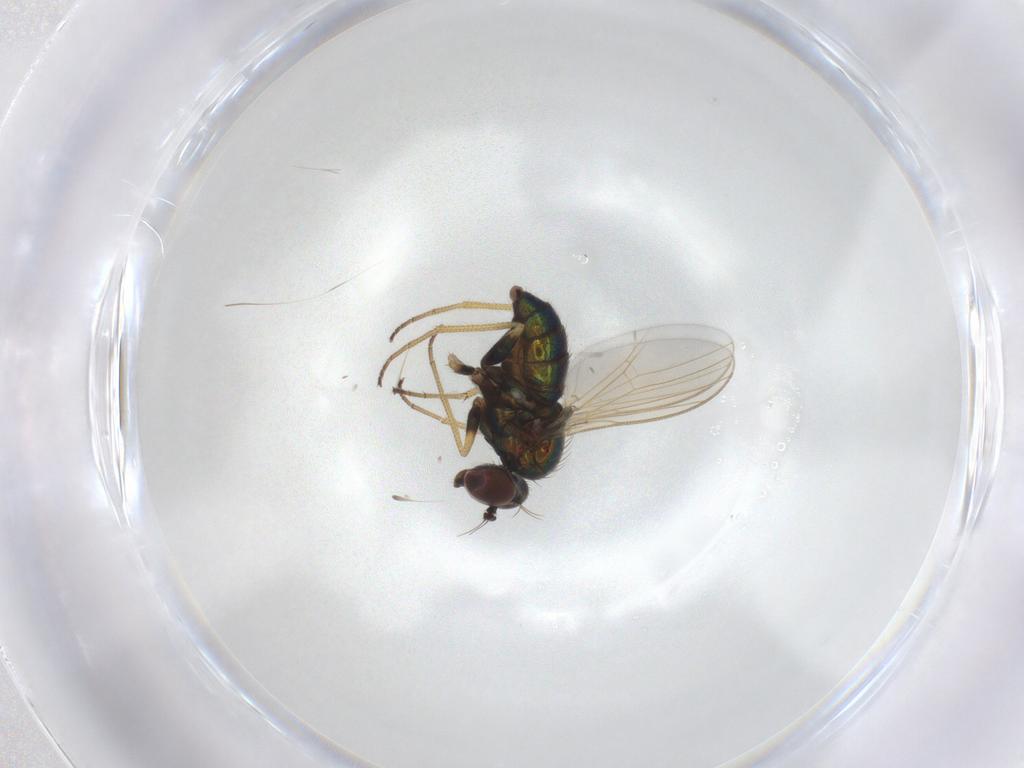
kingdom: Animalia
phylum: Arthropoda
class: Insecta
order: Diptera
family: Dolichopodidae
